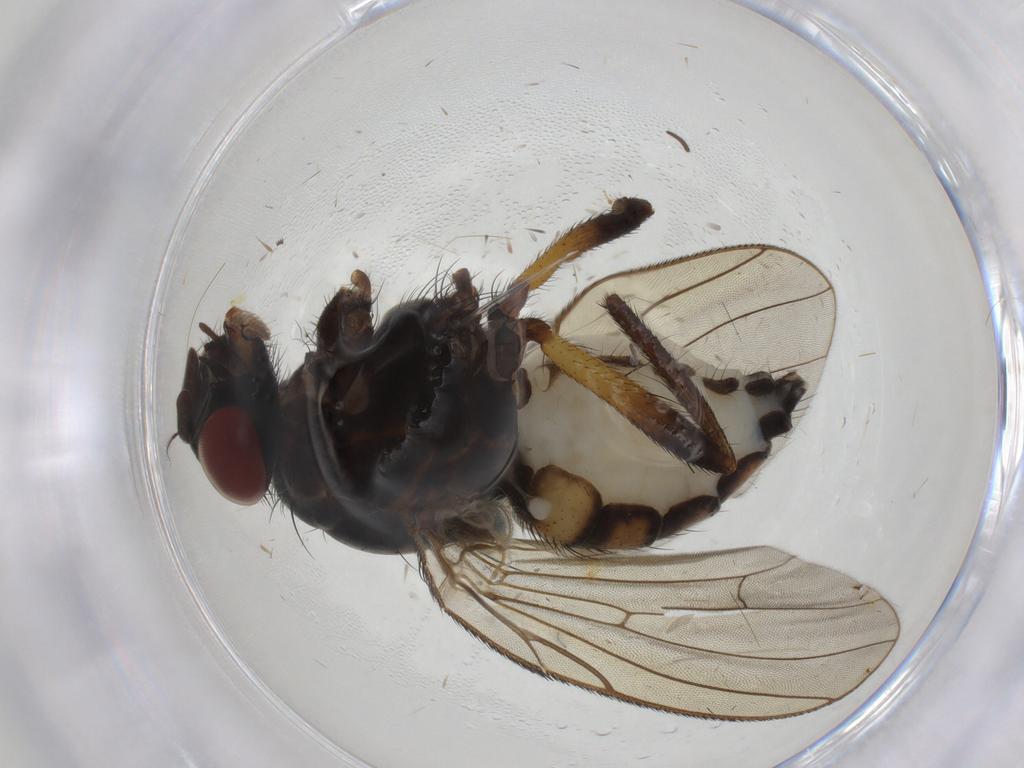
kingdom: Animalia
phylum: Arthropoda
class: Insecta
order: Diptera
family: Anthomyiidae
